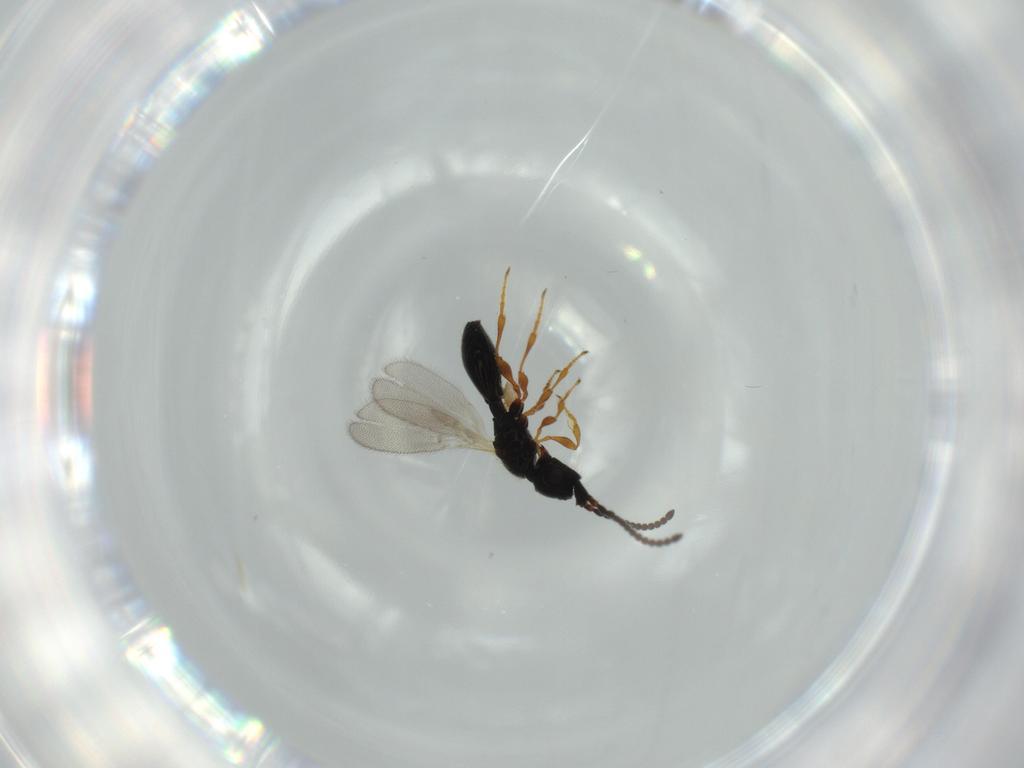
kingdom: Animalia
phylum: Arthropoda
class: Insecta
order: Hymenoptera
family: Diapriidae
